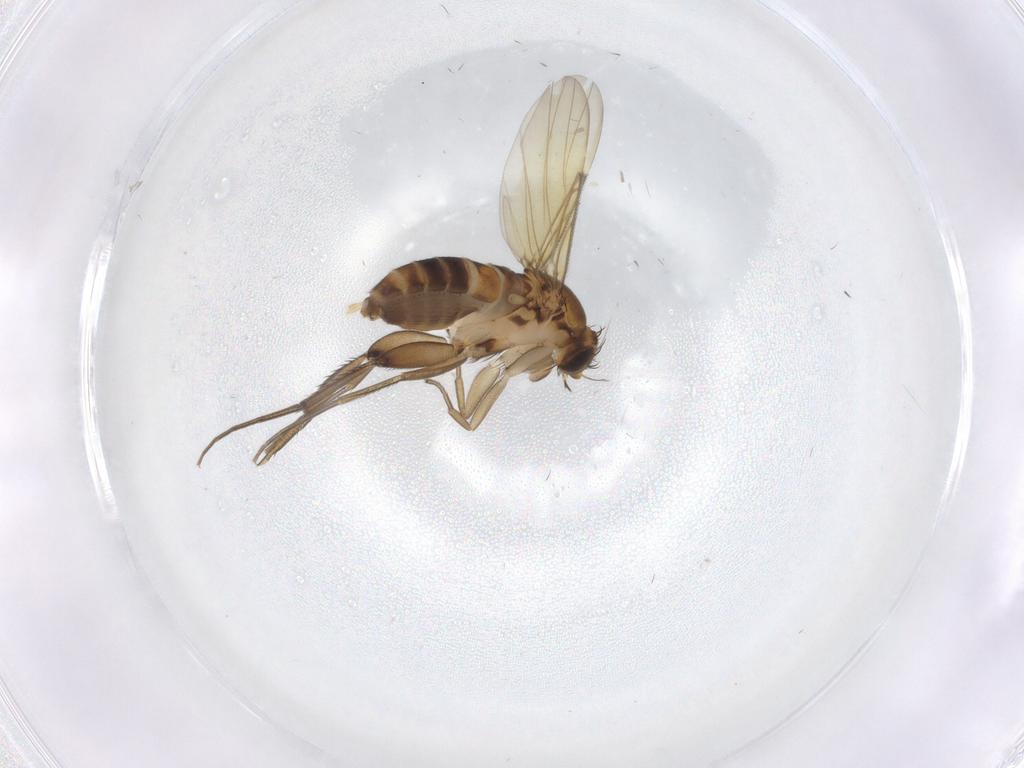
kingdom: Animalia
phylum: Arthropoda
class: Insecta
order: Diptera
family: Phoridae
